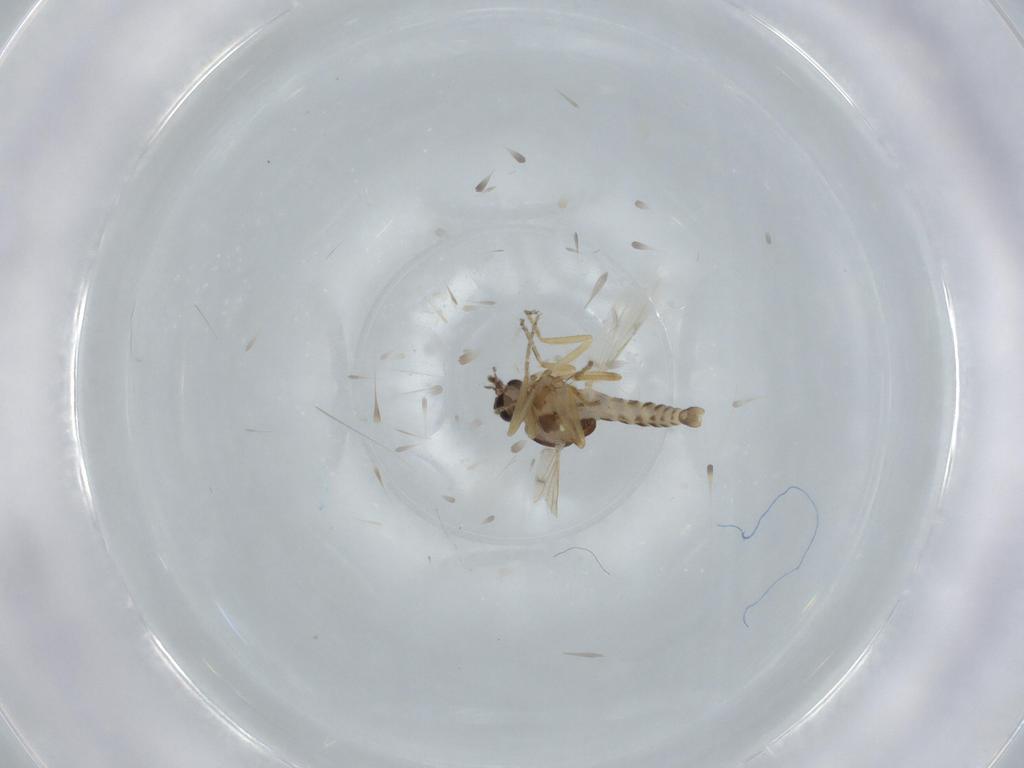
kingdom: Animalia
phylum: Arthropoda
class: Insecta
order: Diptera
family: Ceratopogonidae
